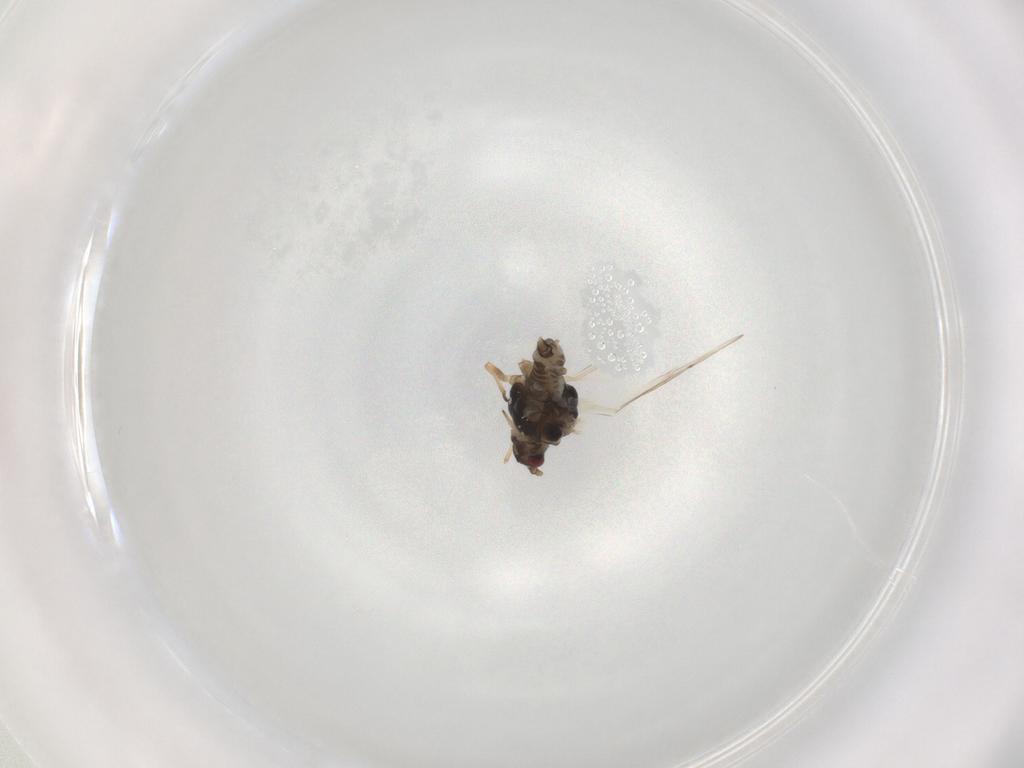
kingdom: Animalia
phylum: Arthropoda
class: Insecta
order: Hemiptera
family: Aphididae
